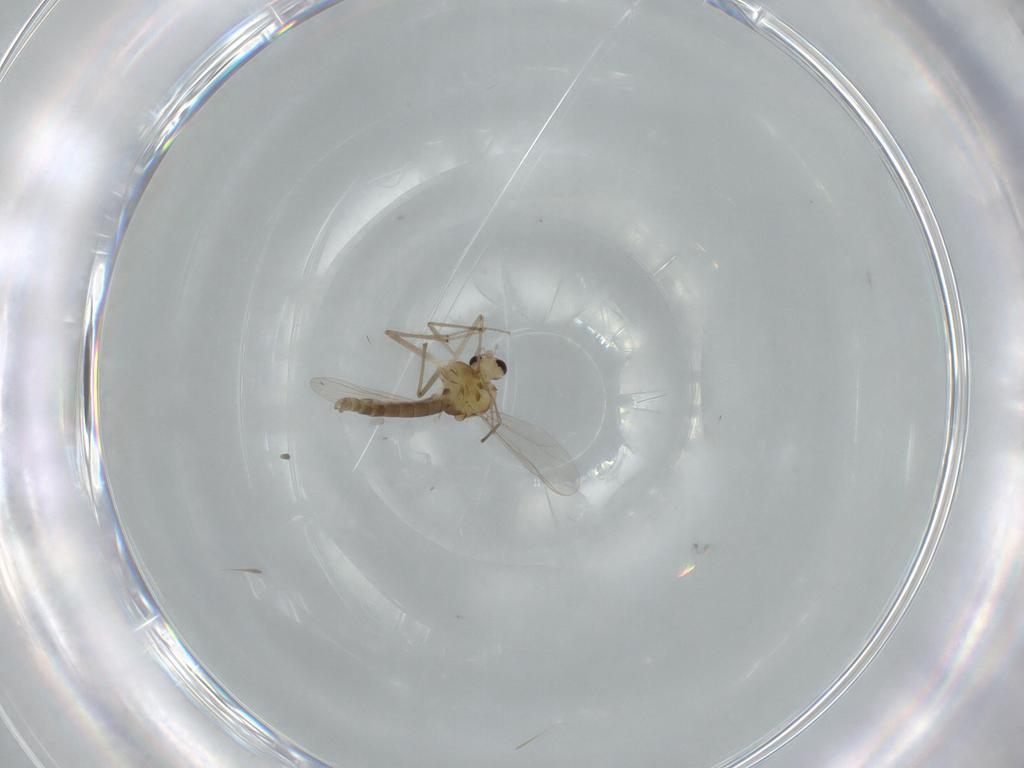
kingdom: Animalia
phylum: Arthropoda
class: Insecta
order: Diptera
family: Chironomidae
